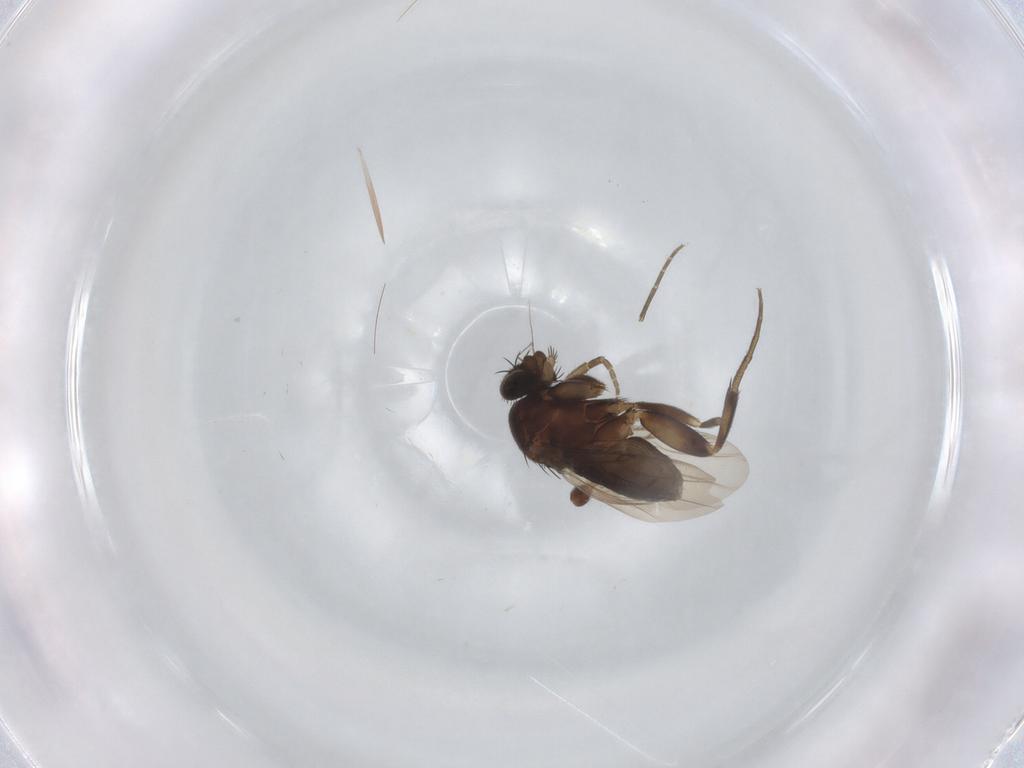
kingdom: Animalia
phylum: Arthropoda
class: Insecta
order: Diptera
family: Phoridae
